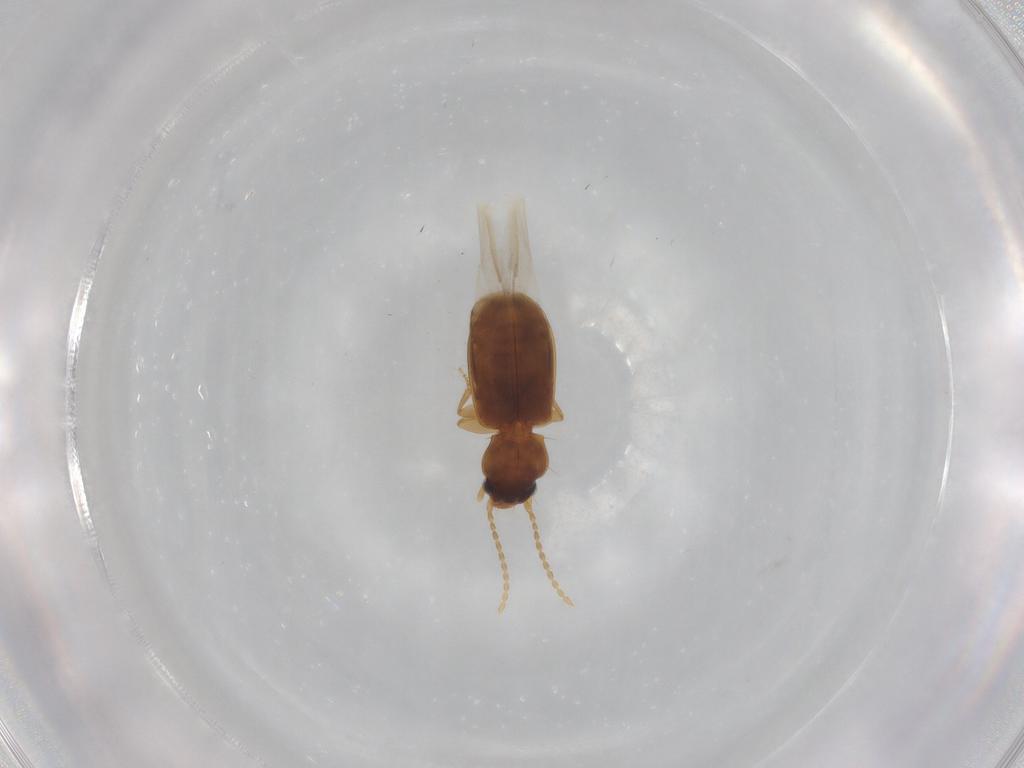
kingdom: Animalia
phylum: Arthropoda
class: Insecta
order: Coleoptera
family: Carabidae
